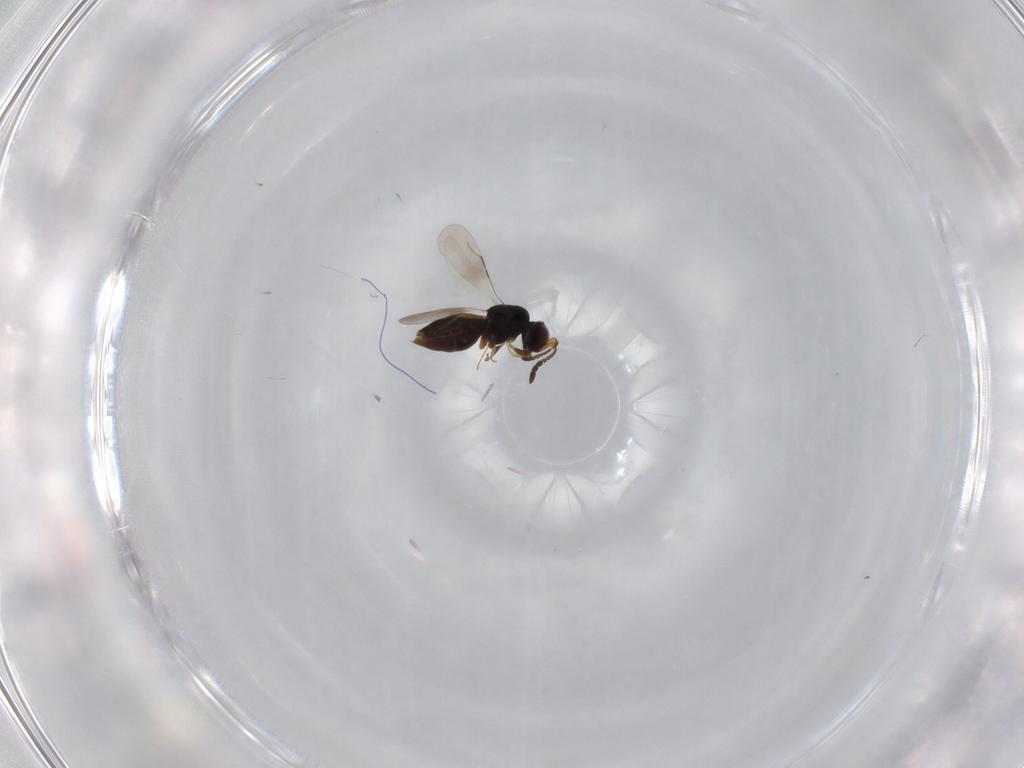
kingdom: Animalia
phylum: Arthropoda
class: Insecta
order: Hymenoptera
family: Ceraphronidae
